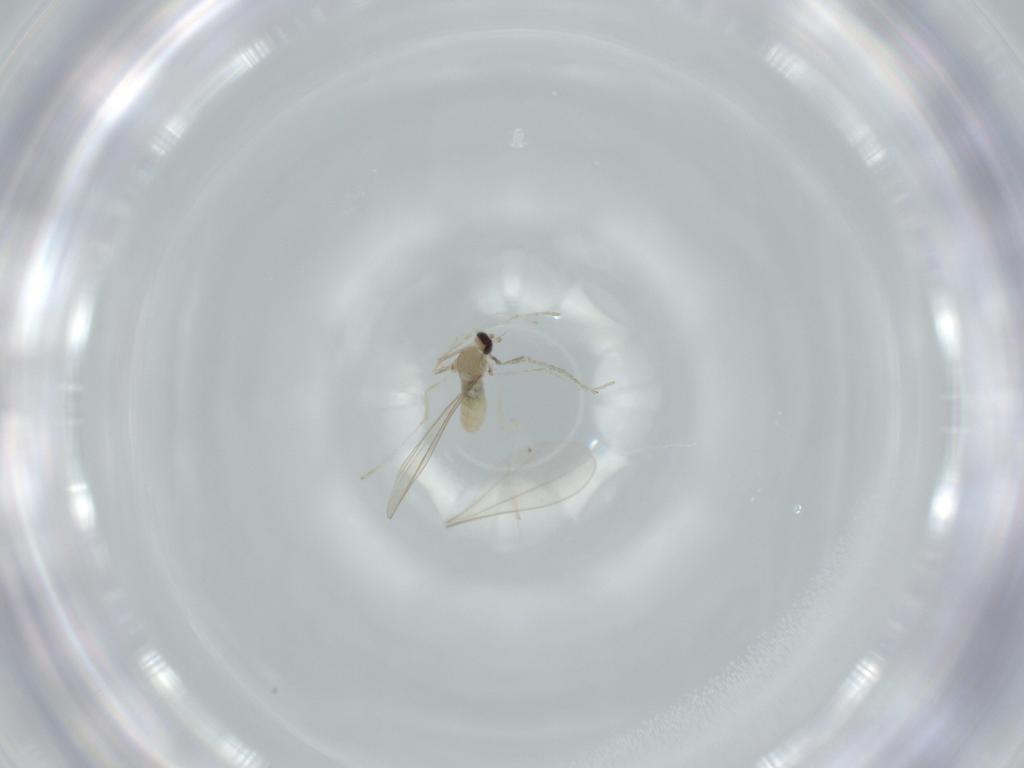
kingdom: Animalia
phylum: Arthropoda
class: Insecta
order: Diptera
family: Cecidomyiidae
